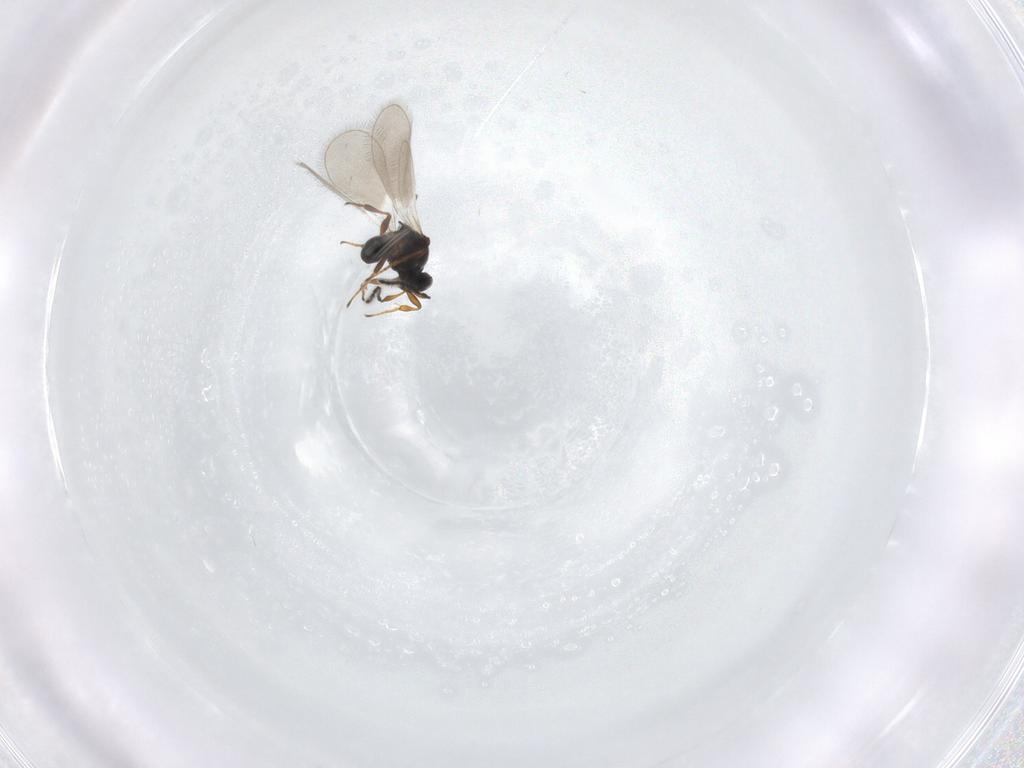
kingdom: Animalia
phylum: Arthropoda
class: Insecta
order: Hymenoptera
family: Platygastridae
